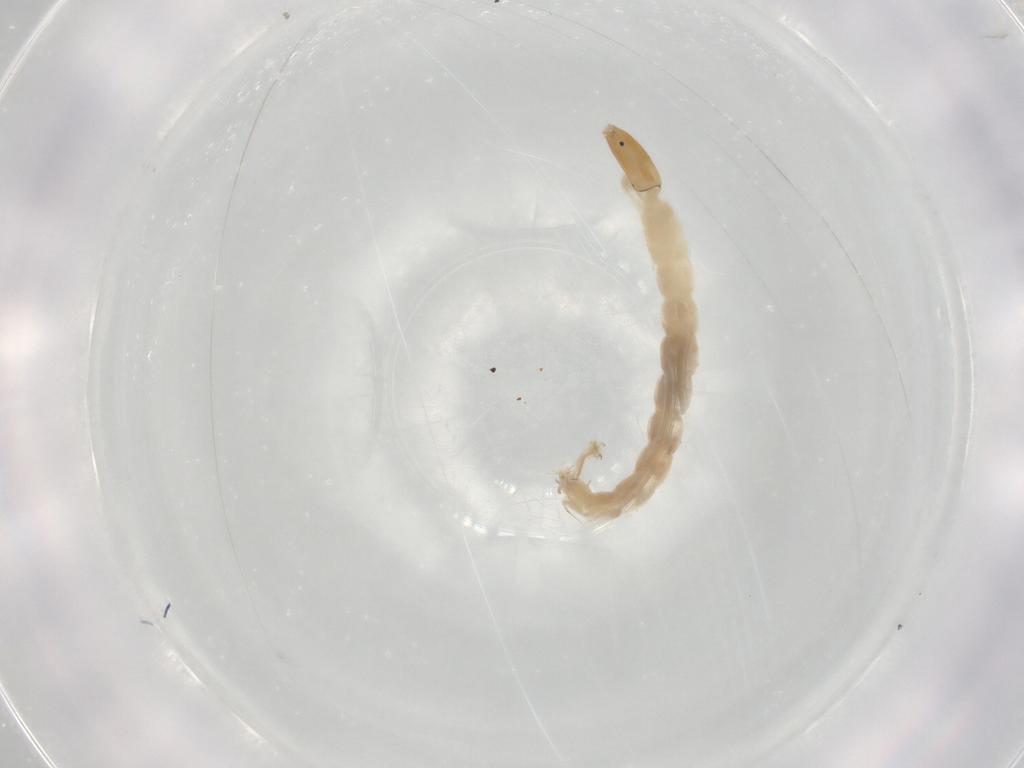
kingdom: Animalia
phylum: Arthropoda
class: Insecta
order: Diptera
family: Chironomidae
